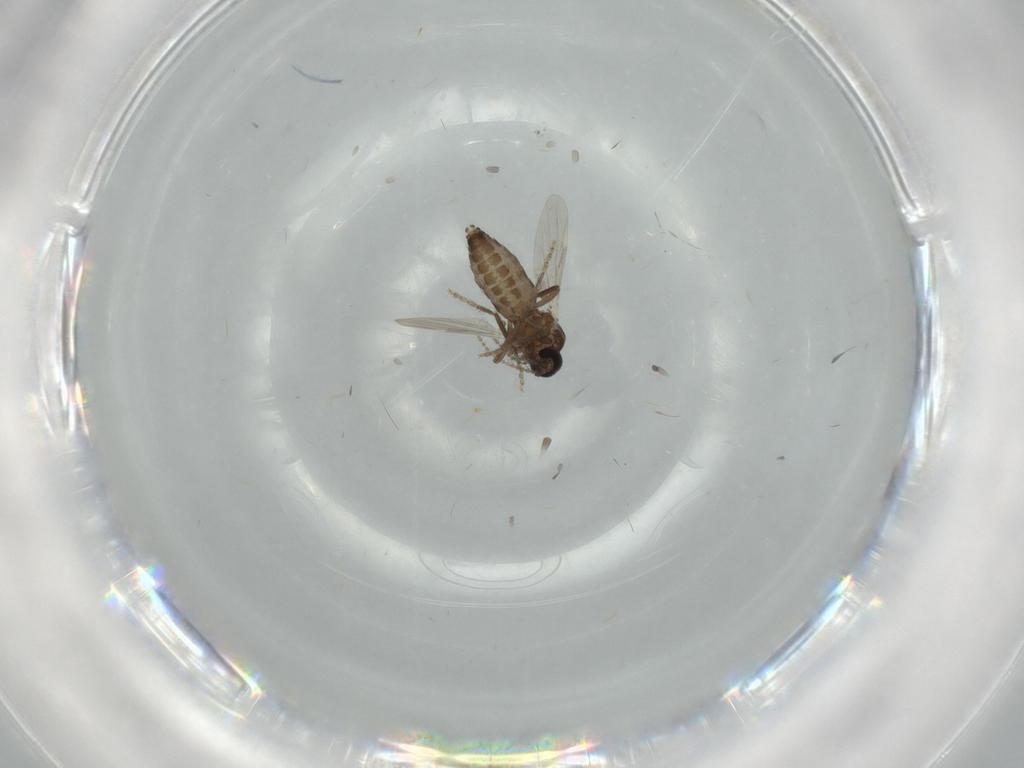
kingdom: Animalia
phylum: Arthropoda
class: Insecta
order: Diptera
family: Ceratopogonidae
